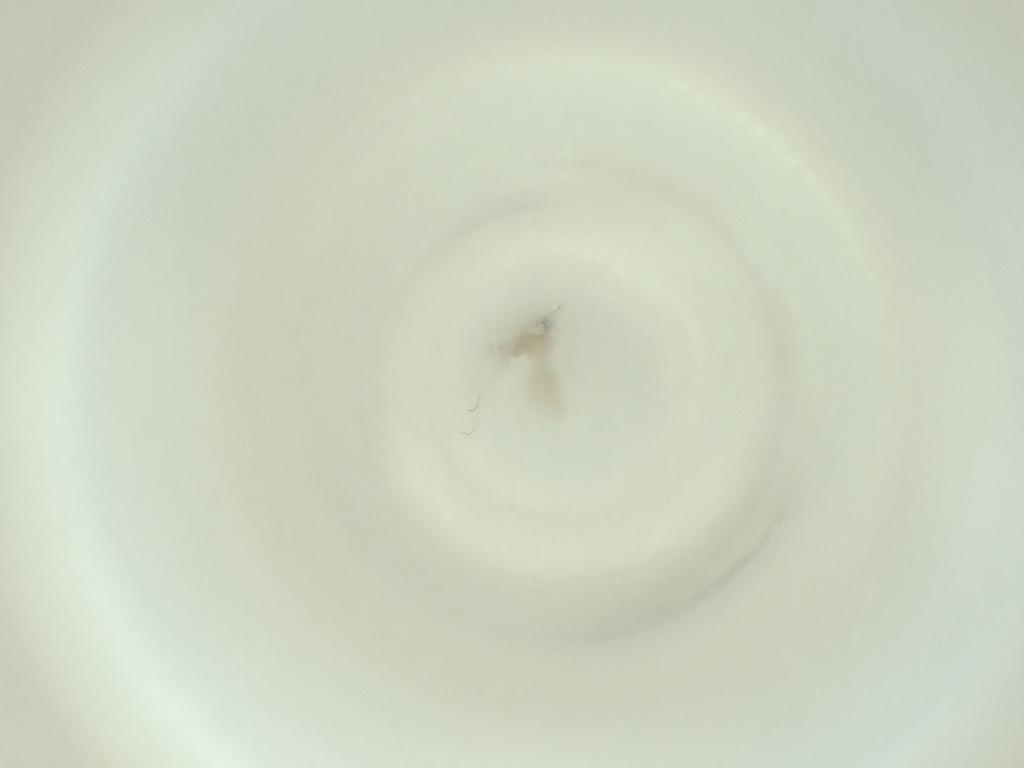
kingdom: Animalia
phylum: Arthropoda
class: Insecta
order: Diptera
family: Cecidomyiidae
